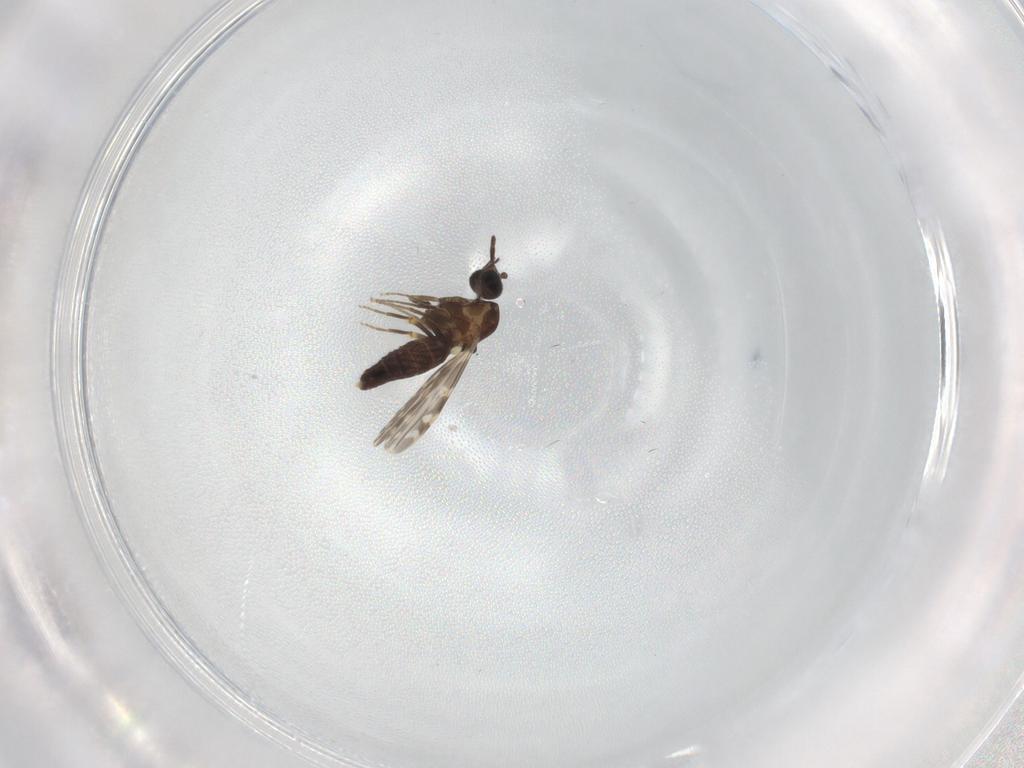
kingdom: Animalia
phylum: Arthropoda
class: Insecta
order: Diptera
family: Ceratopogonidae
